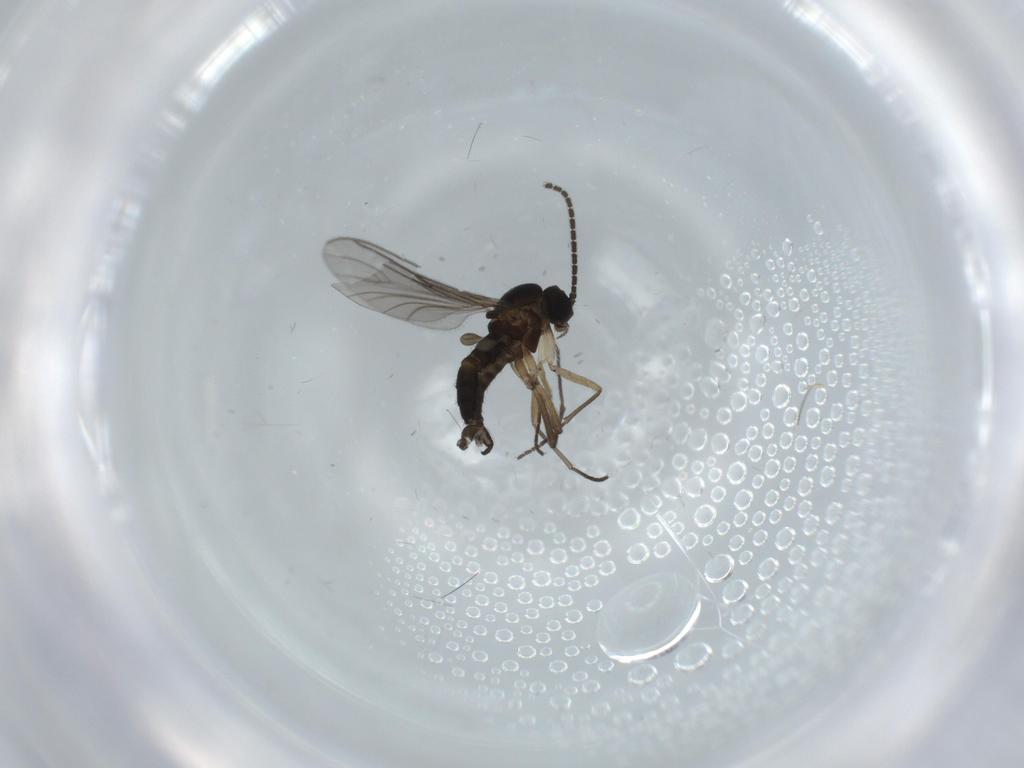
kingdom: Animalia
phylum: Arthropoda
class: Insecta
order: Diptera
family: Sciaridae
